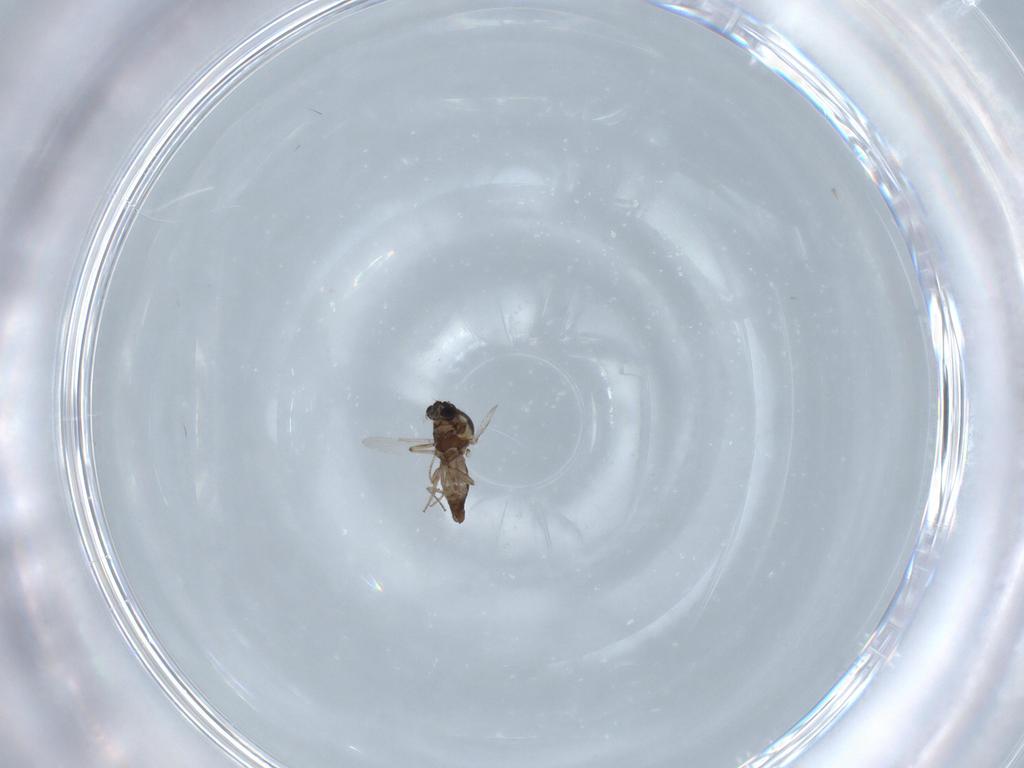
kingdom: Animalia
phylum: Arthropoda
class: Insecta
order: Diptera
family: Ceratopogonidae
